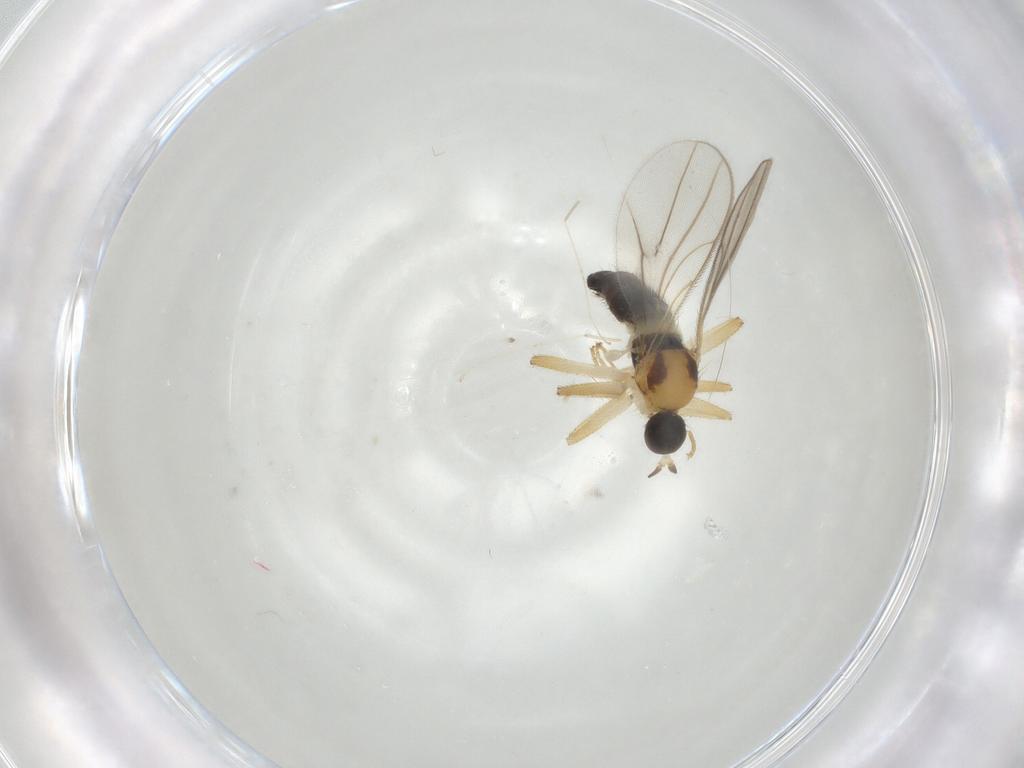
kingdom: Animalia
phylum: Arthropoda
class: Insecta
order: Diptera
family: Hybotidae
